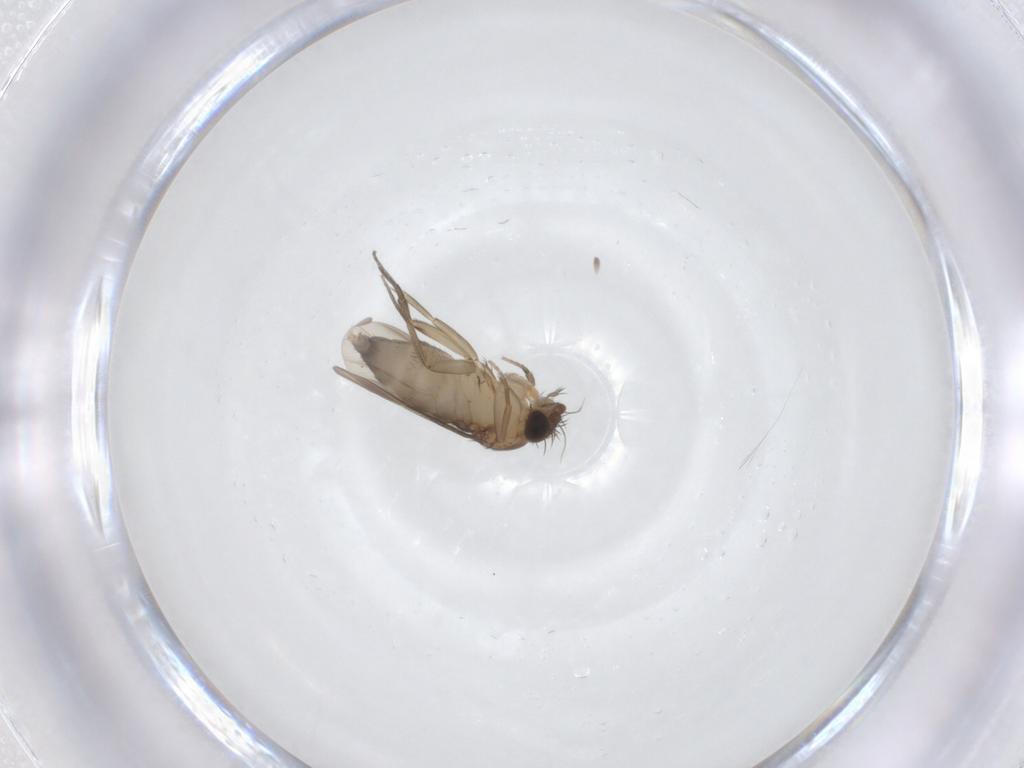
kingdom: Animalia
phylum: Arthropoda
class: Insecta
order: Diptera
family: Phoridae
